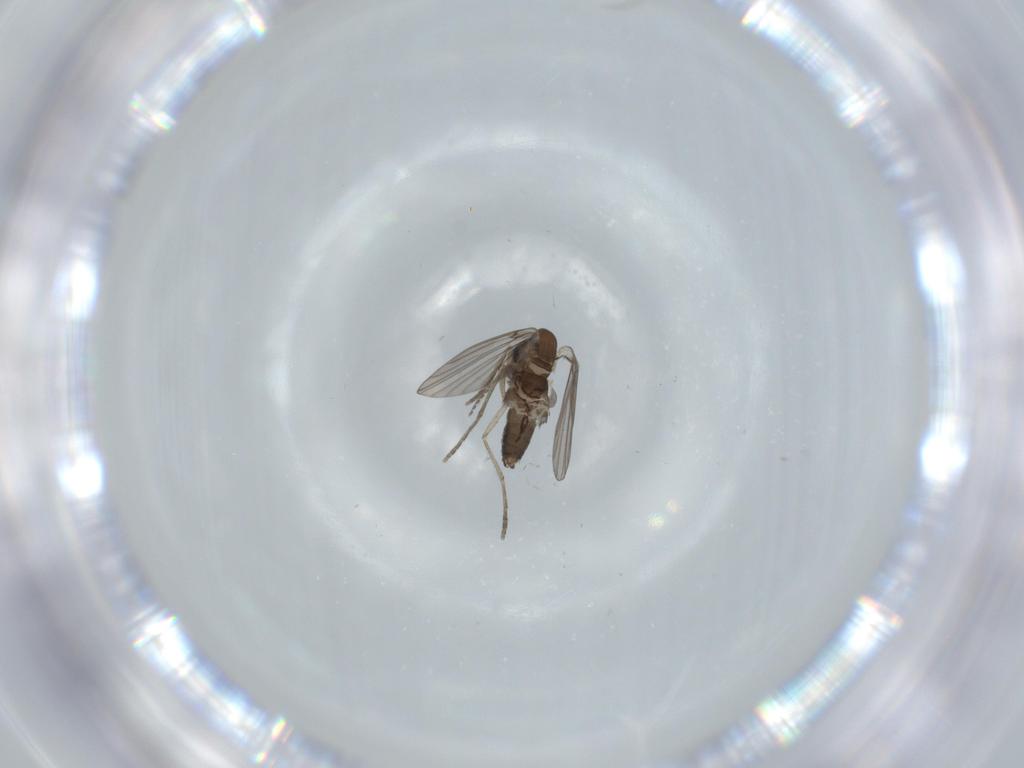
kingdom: Animalia
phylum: Arthropoda
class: Insecta
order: Diptera
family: Psychodidae
